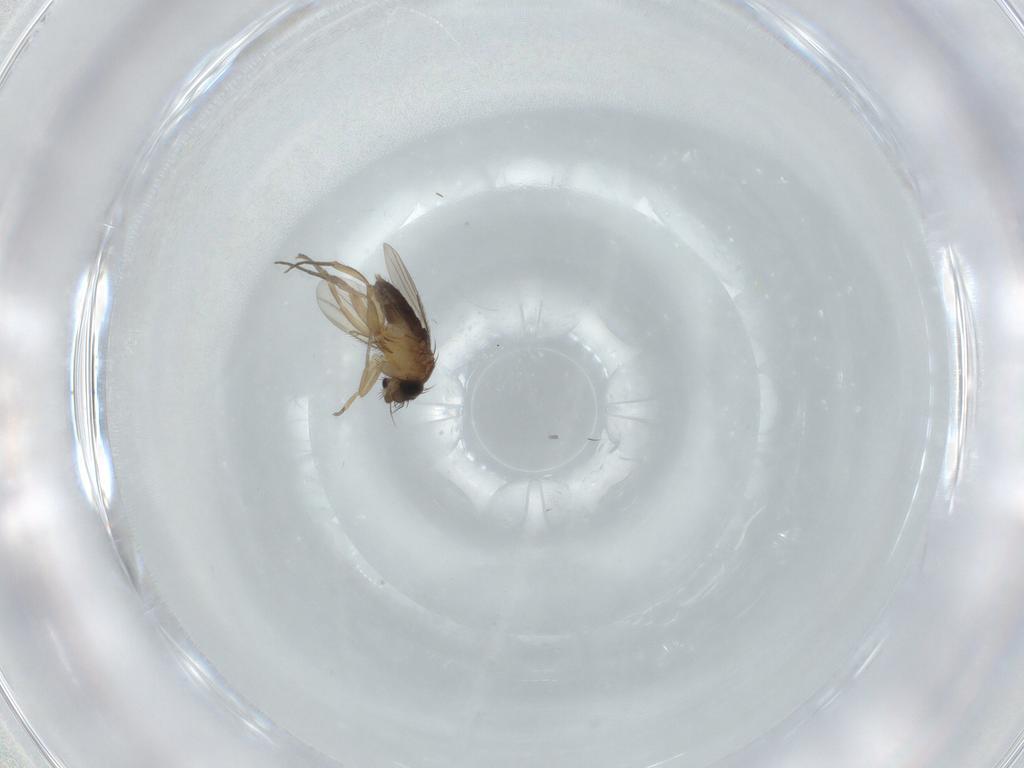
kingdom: Animalia
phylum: Arthropoda
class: Insecta
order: Diptera
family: Phoridae
